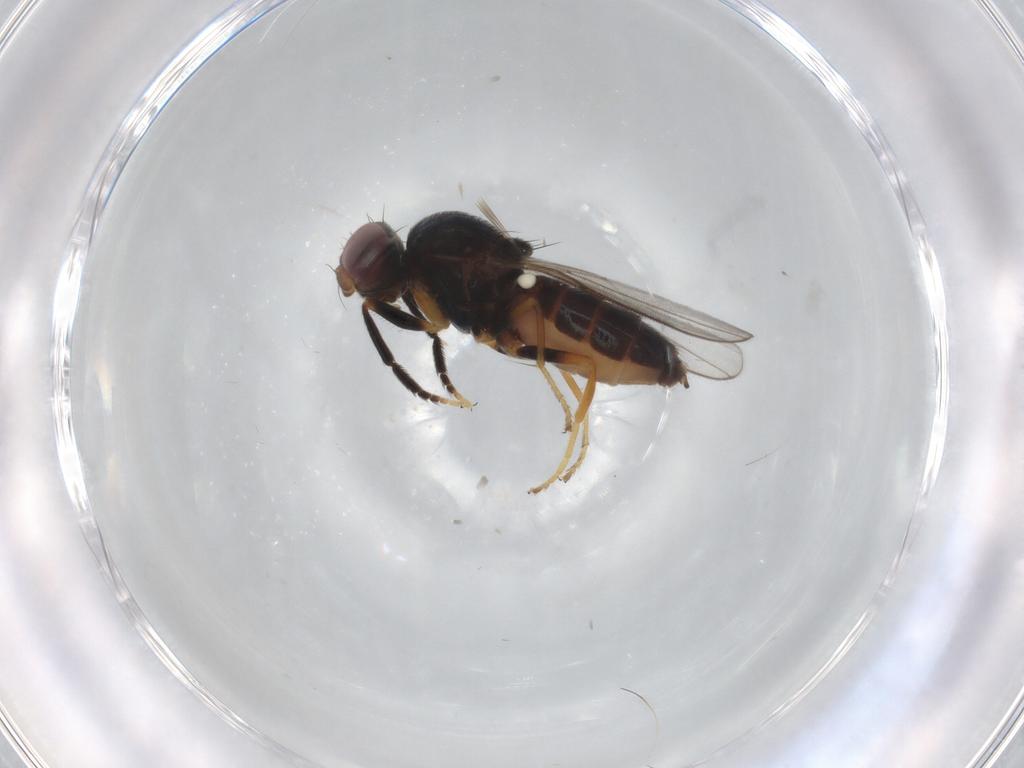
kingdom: Animalia
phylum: Arthropoda
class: Insecta
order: Diptera
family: Chloropidae
